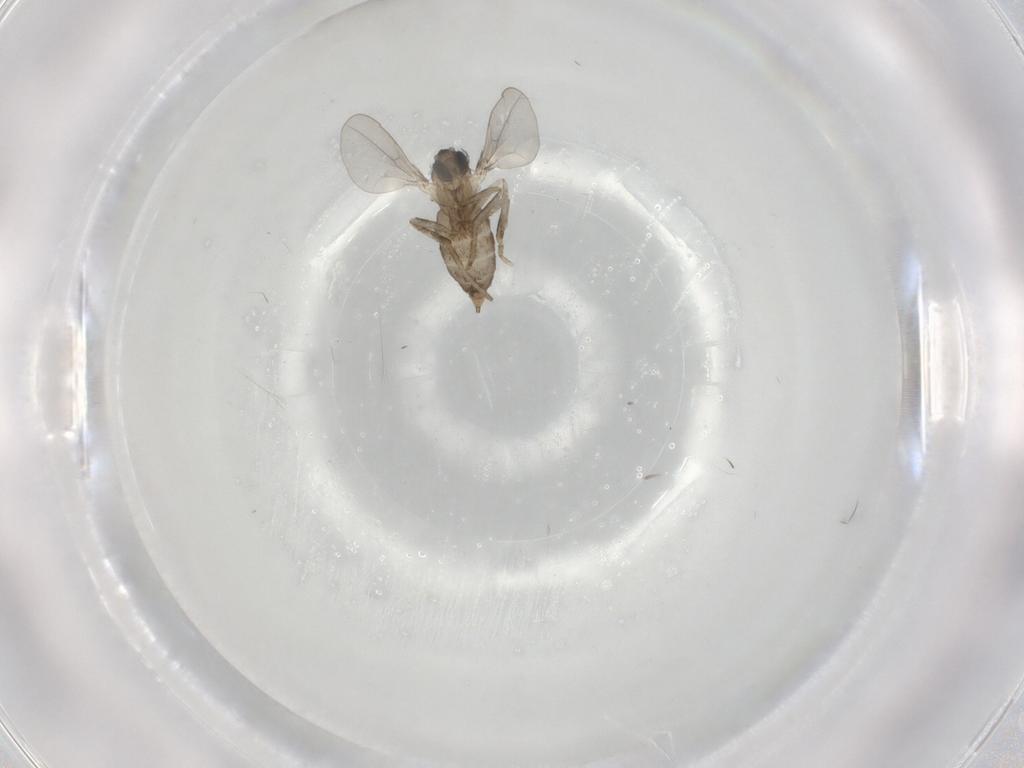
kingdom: Animalia
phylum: Arthropoda
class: Insecta
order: Diptera
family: Cecidomyiidae
